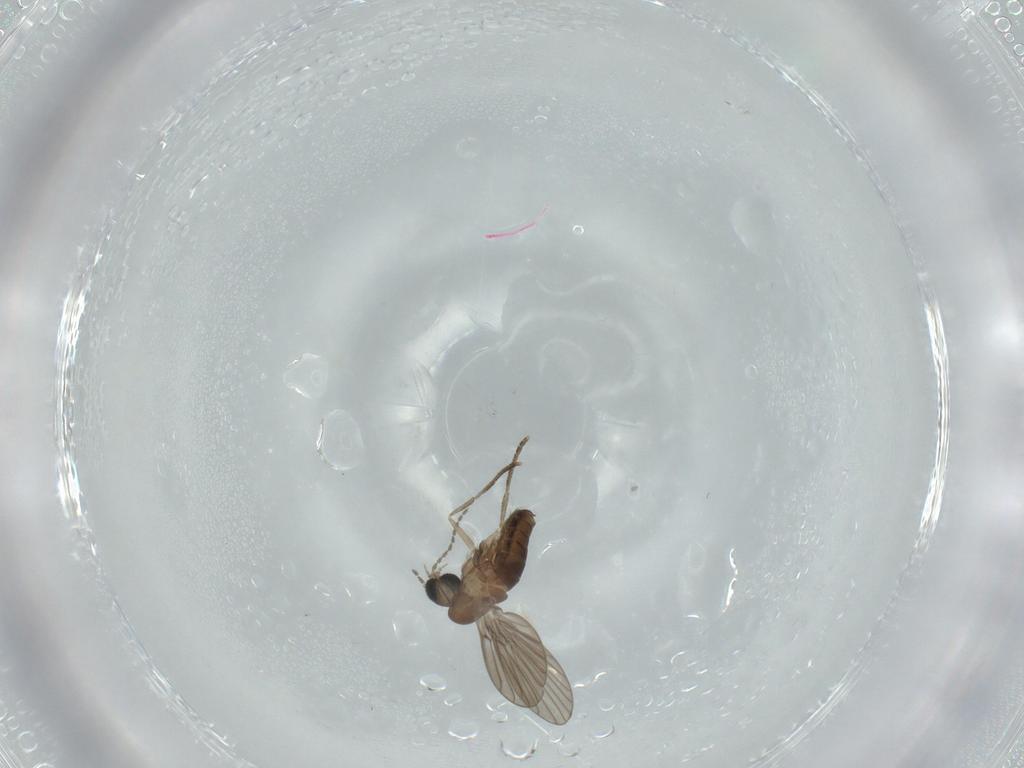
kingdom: Animalia
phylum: Arthropoda
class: Insecta
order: Diptera
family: Psychodidae
